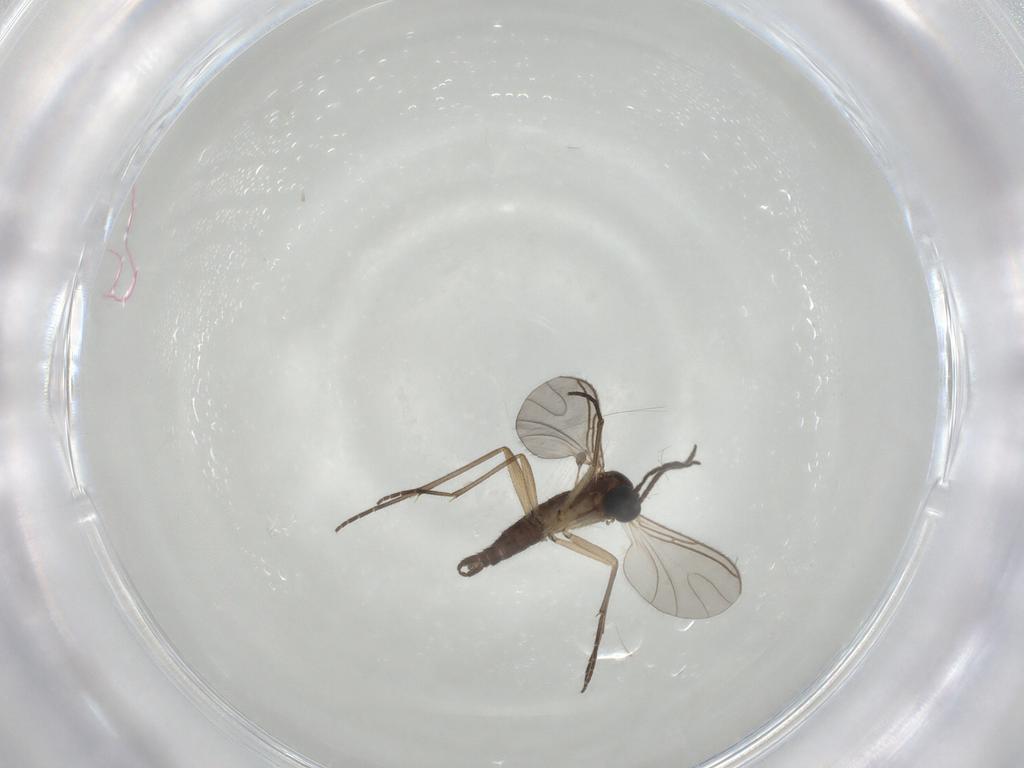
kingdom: Animalia
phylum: Arthropoda
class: Insecta
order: Diptera
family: Sciaridae
